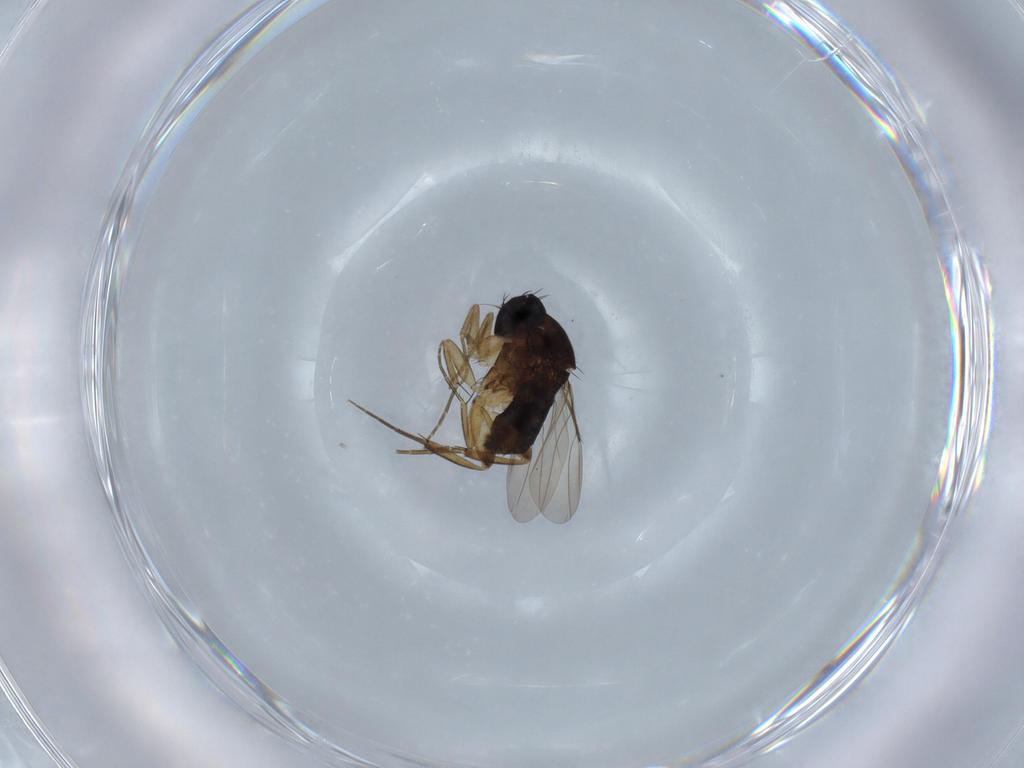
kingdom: Animalia
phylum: Arthropoda
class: Insecta
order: Diptera
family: Phoridae
